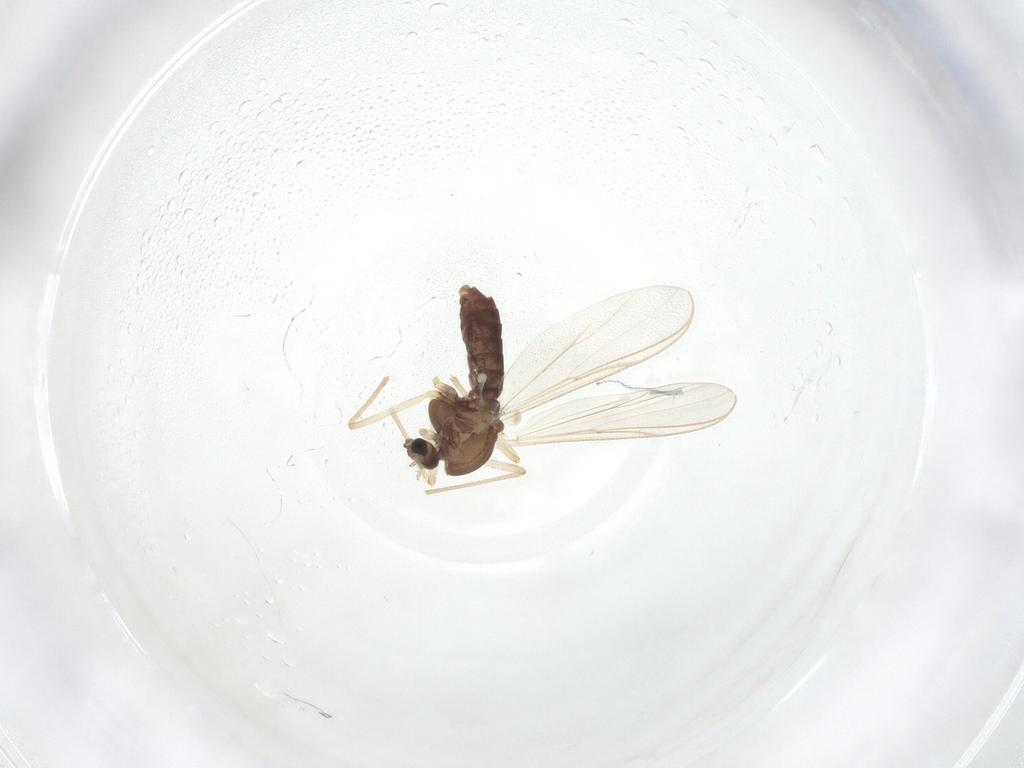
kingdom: Animalia
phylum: Arthropoda
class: Insecta
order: Diptera
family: Chironomidae
